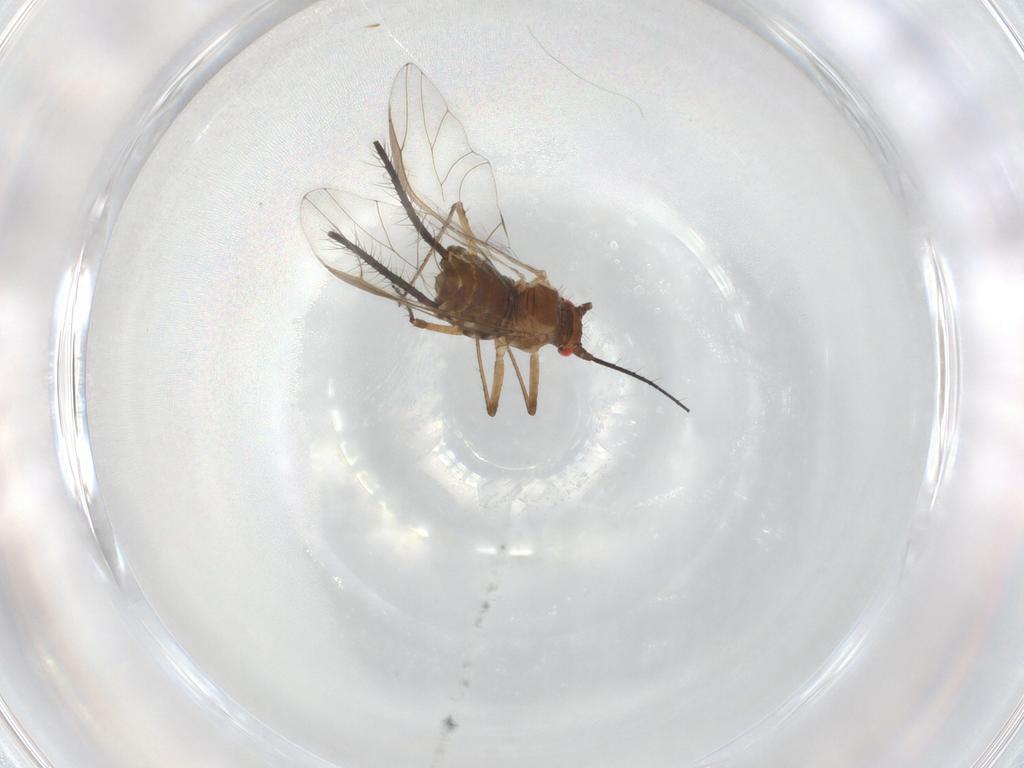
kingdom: Animalia
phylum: Arthropoda
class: Insecta
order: Hemiptera
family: Aphididae
